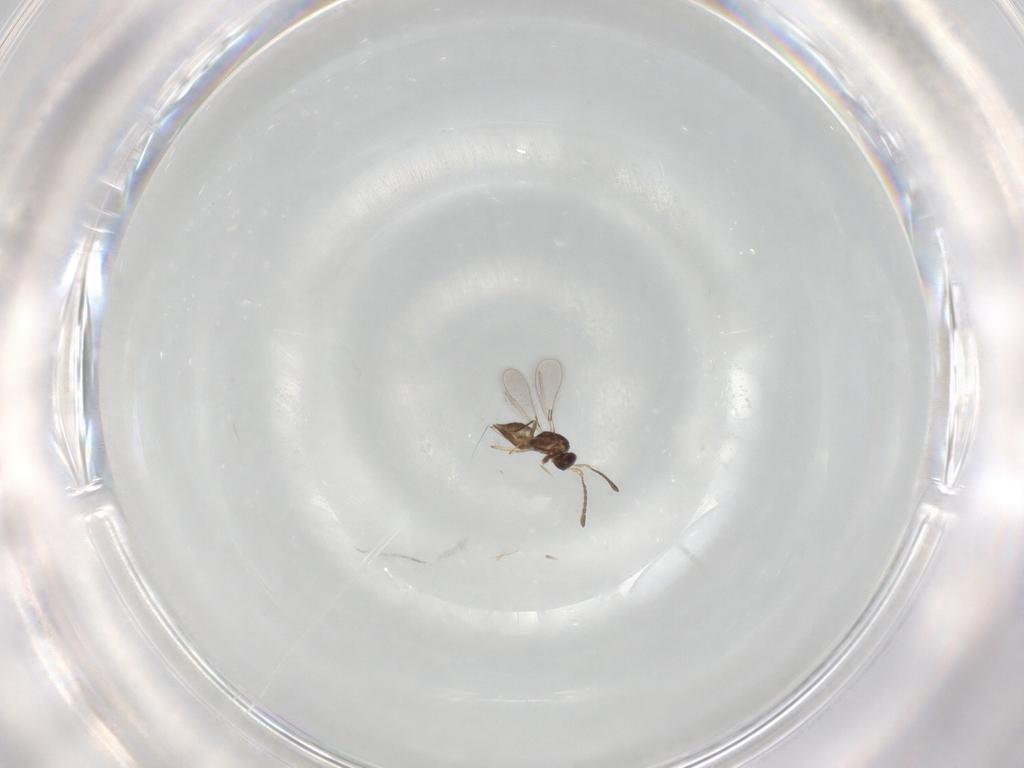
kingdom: Animalia
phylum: Arthropoda
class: Insecta
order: Hymenoptera
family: Mymaridae
